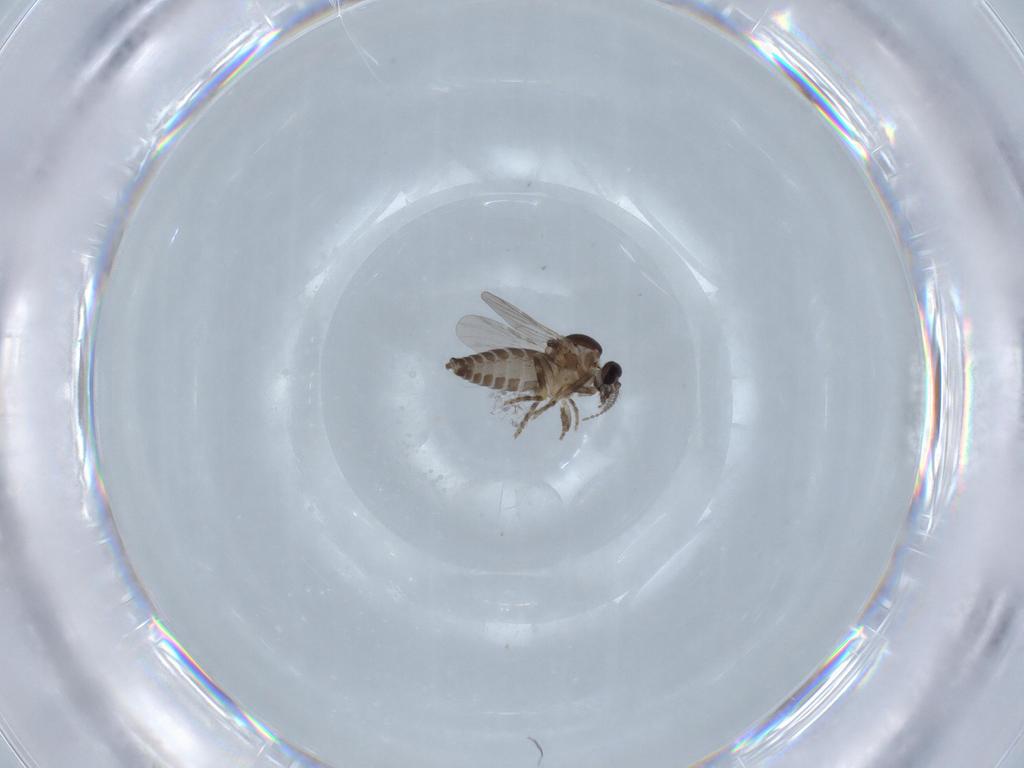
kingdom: Animalia
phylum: Arthropoda
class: Insecta
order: Diptera
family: Ceratopogonidae
